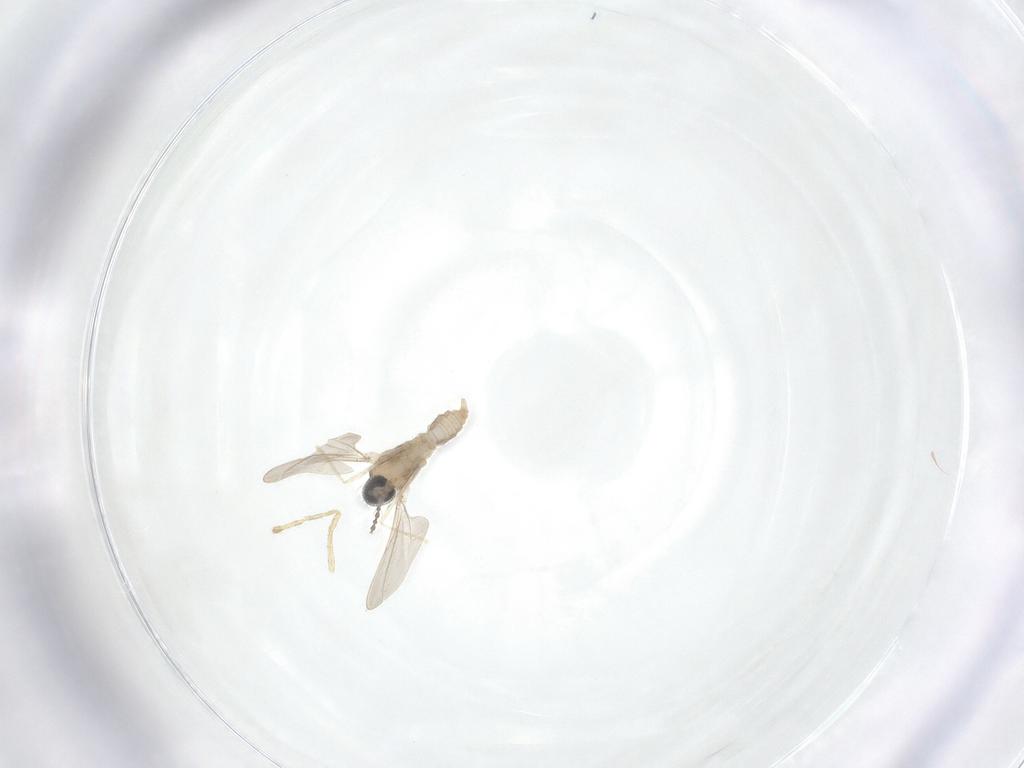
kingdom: Animalia
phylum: Arthropoda
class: Insecta
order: Diptera
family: Cecidomyiidae
